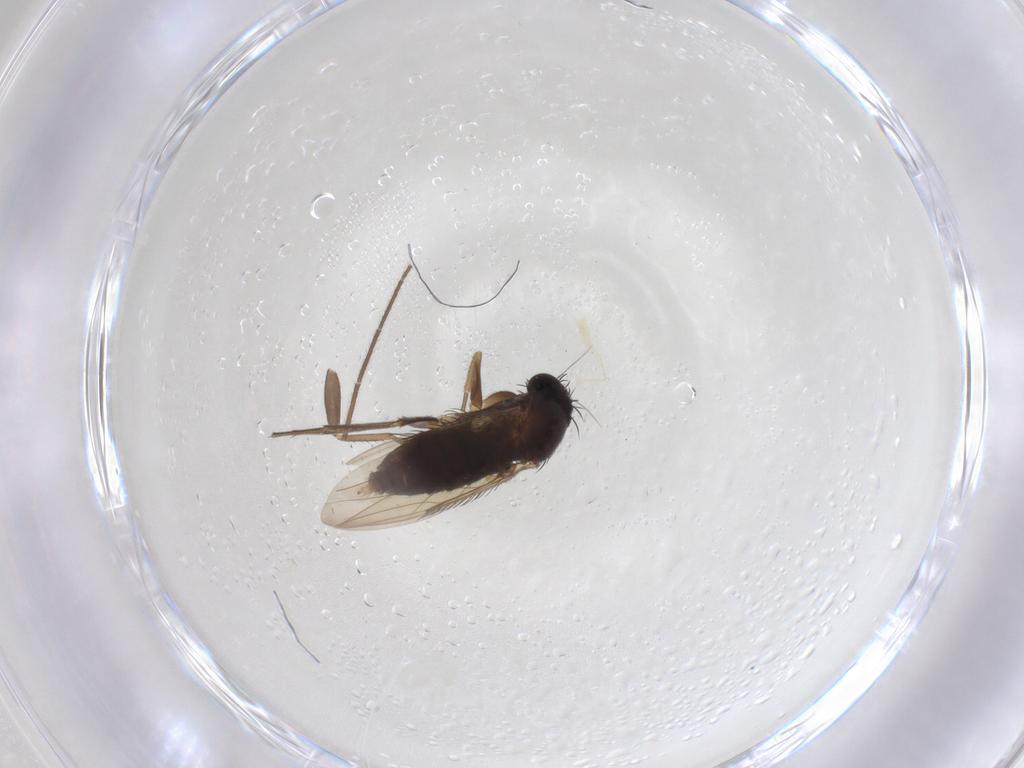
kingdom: Animalia
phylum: Arthropoda
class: Insecta
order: Diptera
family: Phoridae
